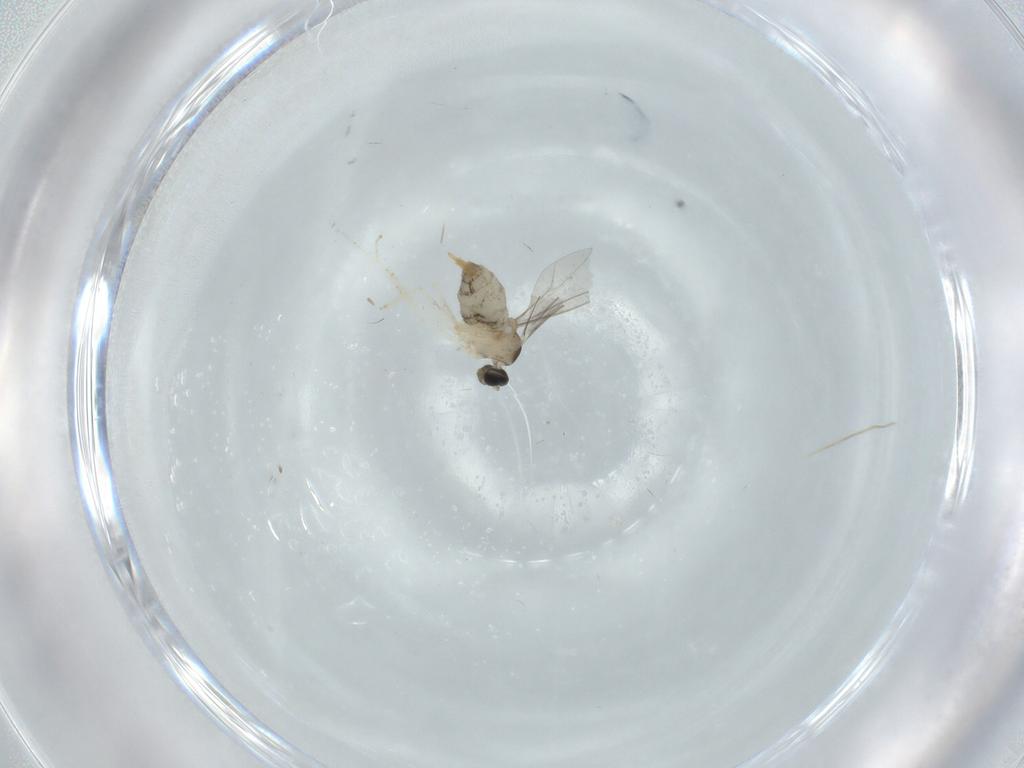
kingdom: Animalia
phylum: Arthropoda
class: Insecta
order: Diptera
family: Cecidomyiidae
